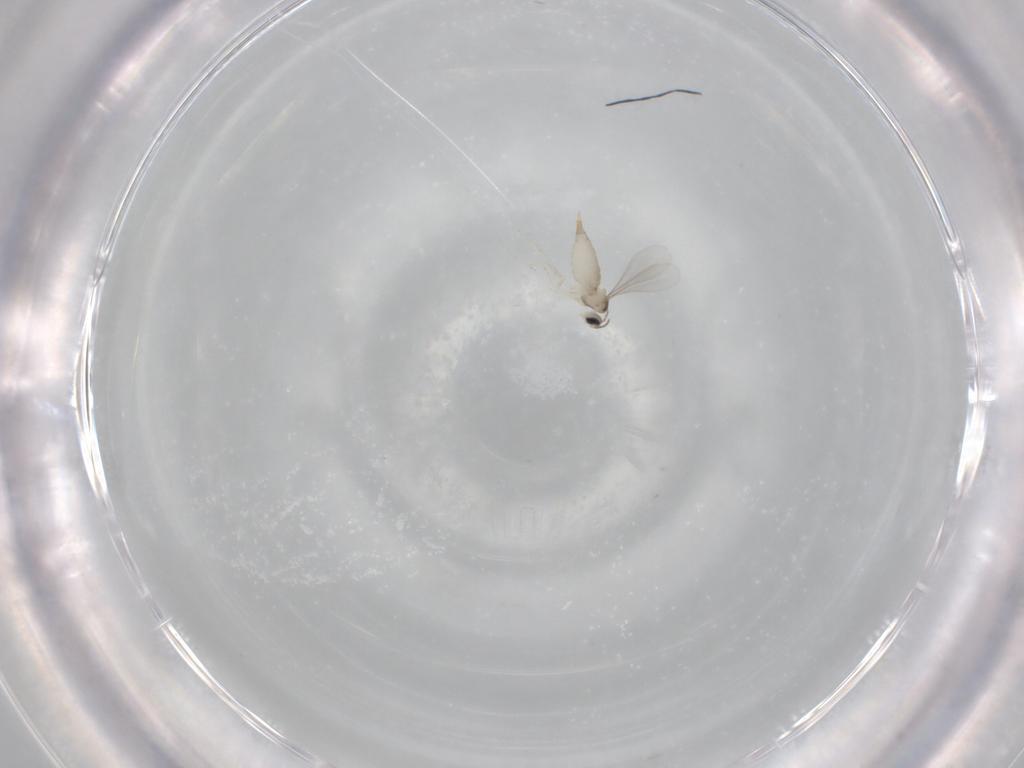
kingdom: Animalia
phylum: Arthropoda
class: Insecta
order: Diptera
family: Cecidomyiidae
